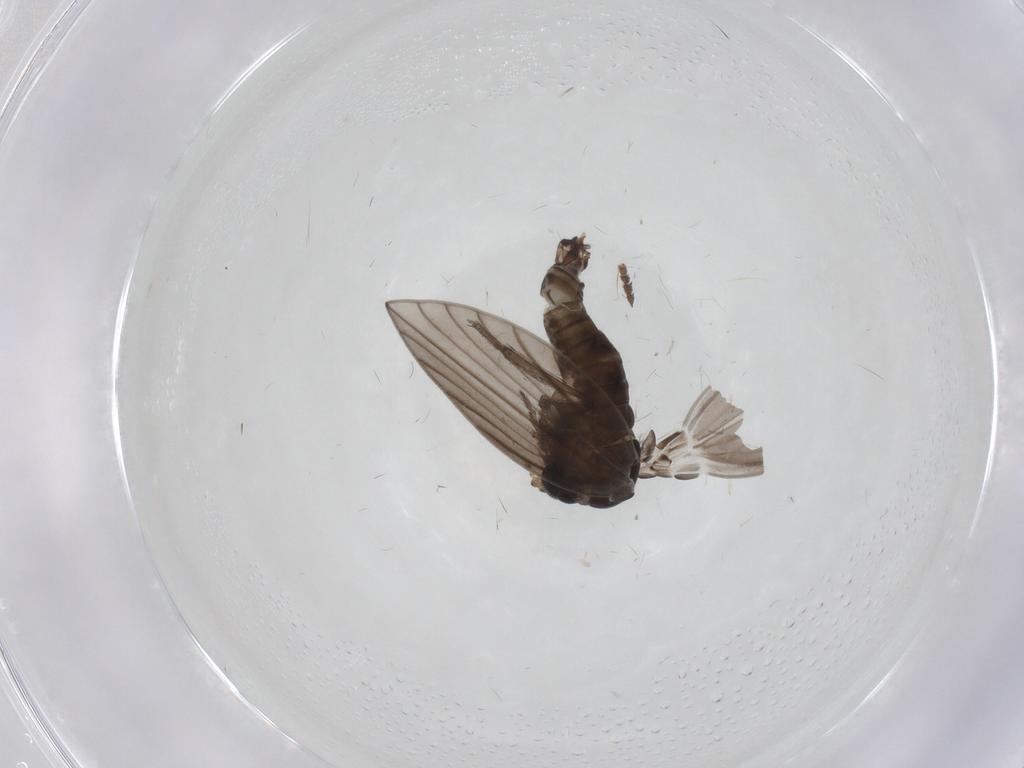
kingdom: Animalia
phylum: Arthropoda
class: Insecta
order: Diptera
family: Psychodidae
